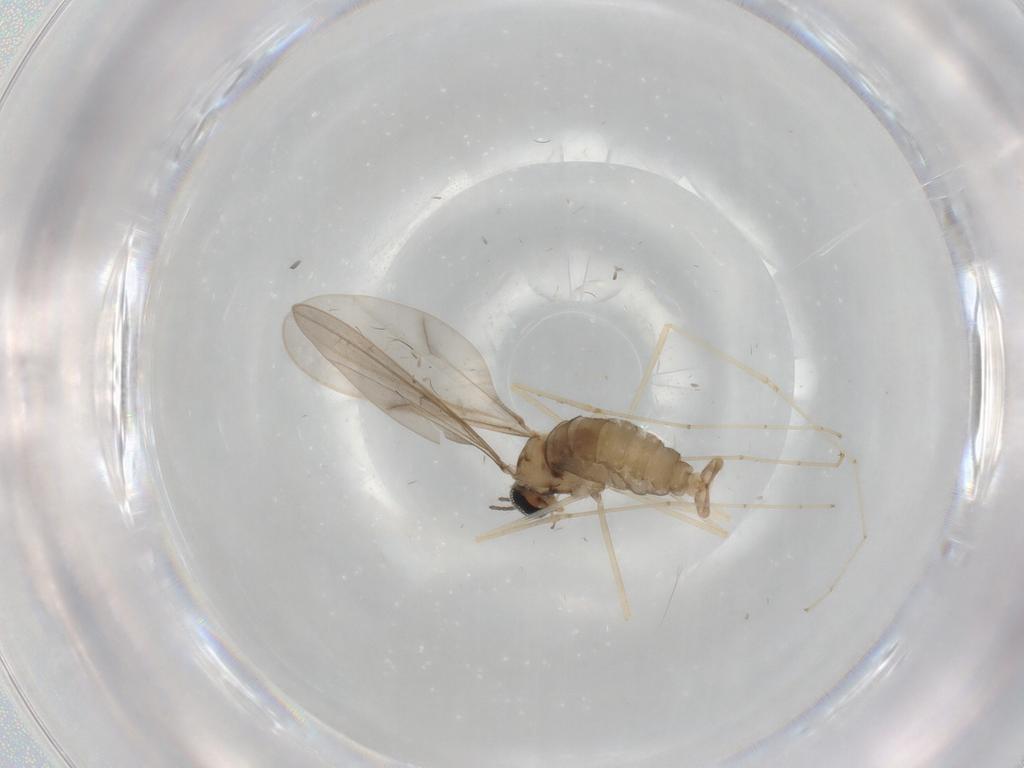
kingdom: Animalia
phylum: Arthropoda
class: Insecta
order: Diptera
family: Cecidomyiidae
